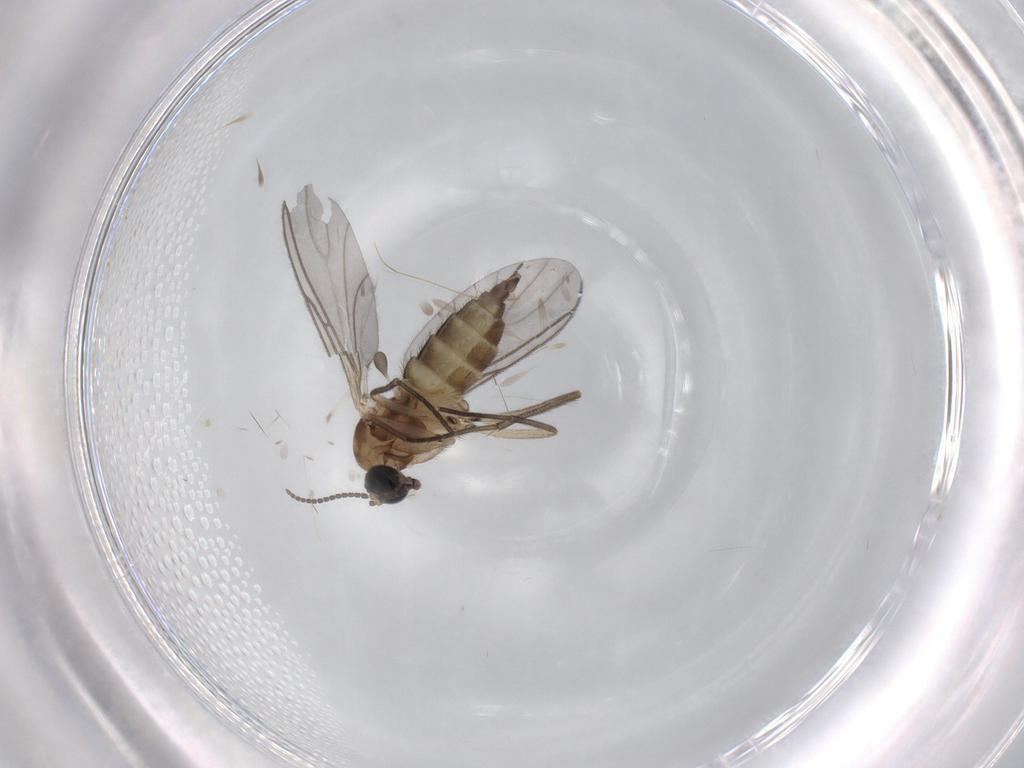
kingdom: Animalia
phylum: Arthropoda
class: Insecta
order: Diptera
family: Sciaridae
